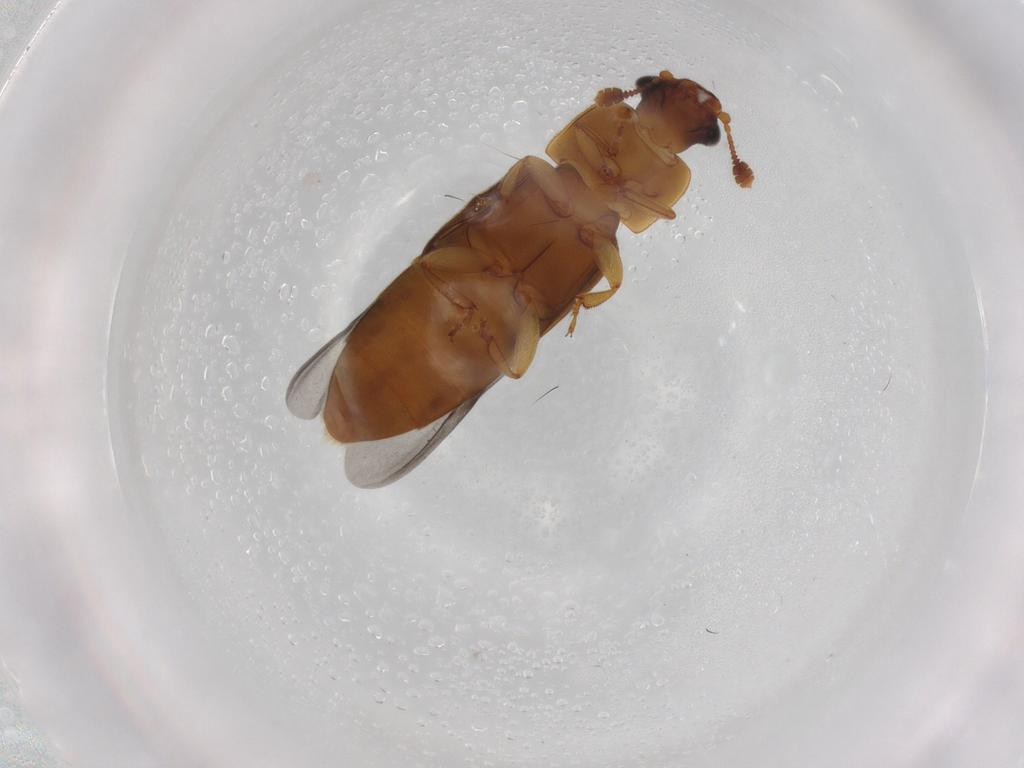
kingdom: Animalia
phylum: Arthropoda
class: Insecta
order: Coleoptera
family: Nitidulidae
